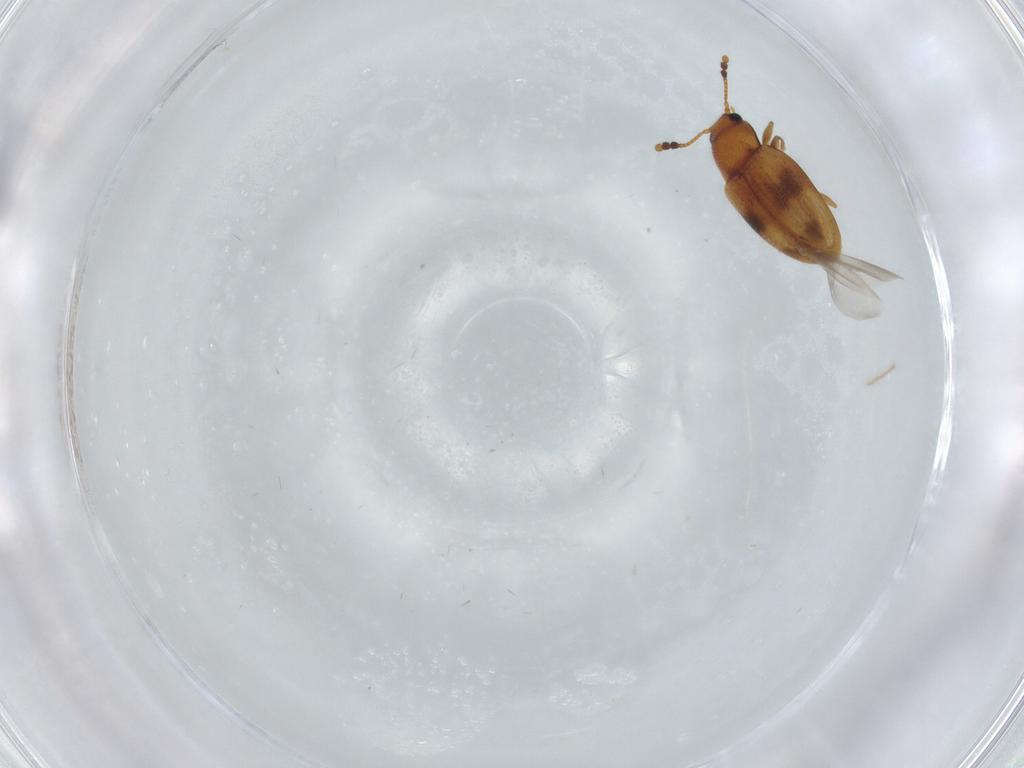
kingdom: Animalia
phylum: Arthropoda
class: Insecta
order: Coleoptera
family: Erotylidae
